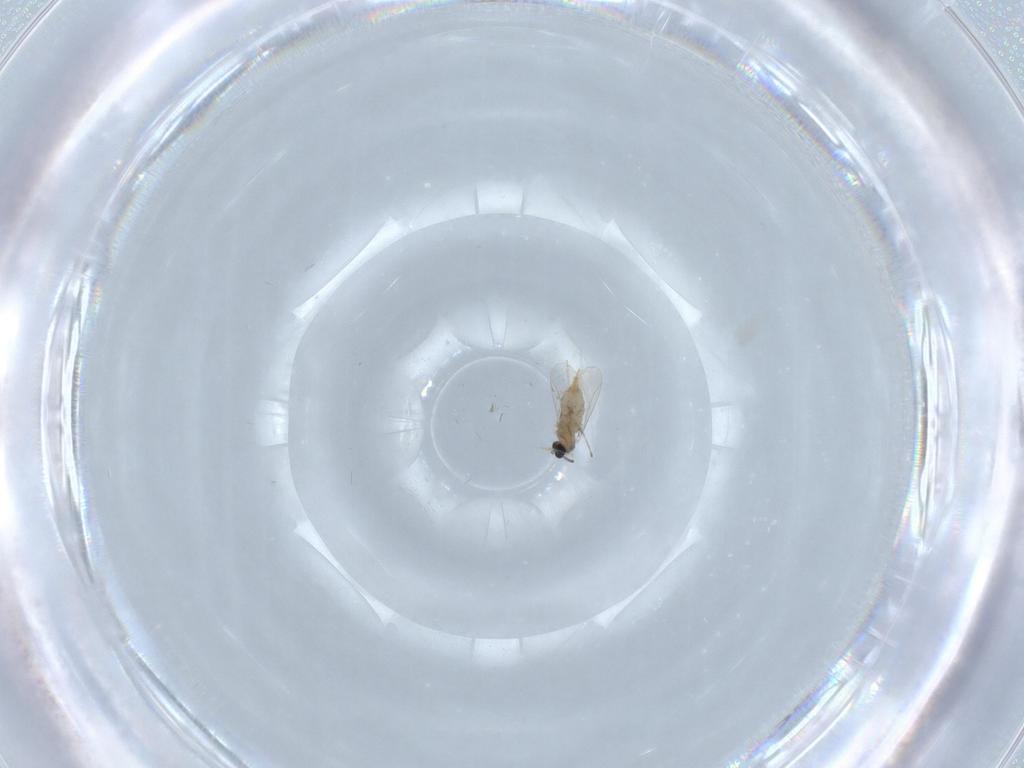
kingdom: Animalia
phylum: Arthropoda
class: Insecta
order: Diptera
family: Cecidomyiidae
